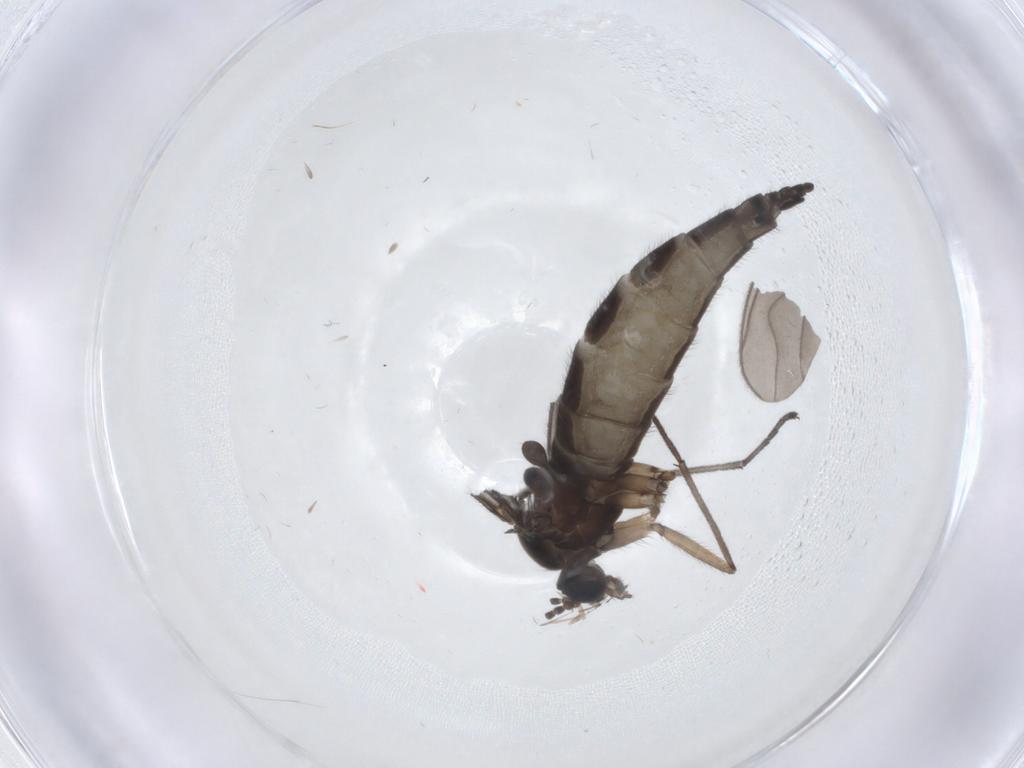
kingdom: Animalia
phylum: Arthropoda
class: Insecta
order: Diptera
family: Sciaridae
